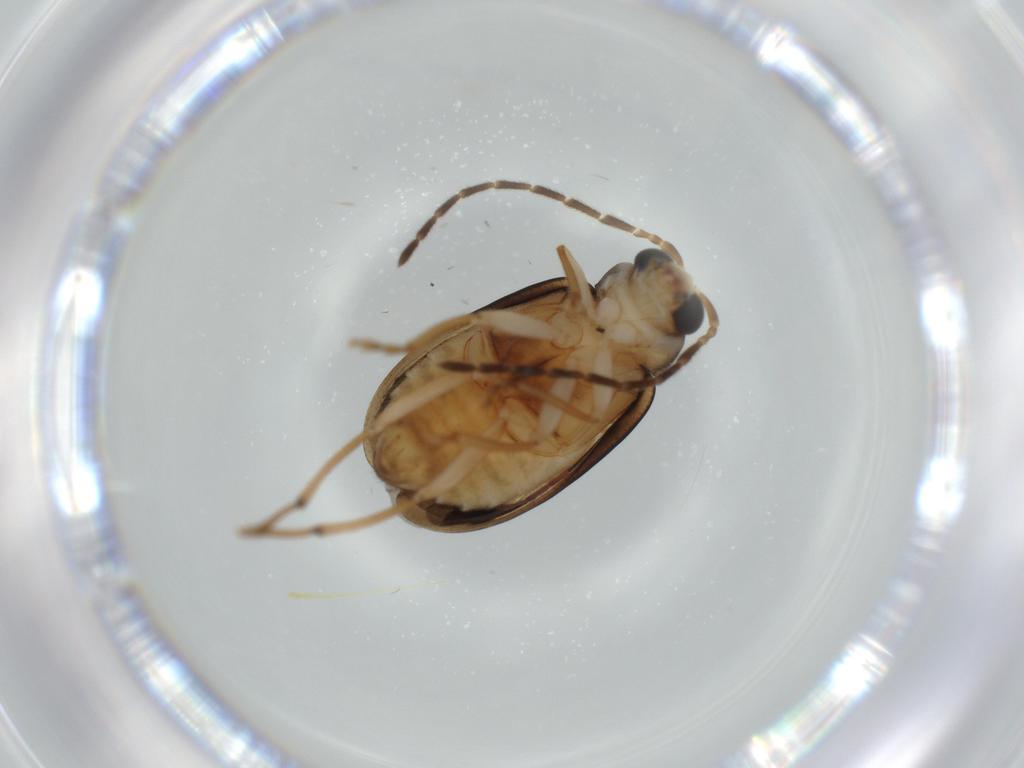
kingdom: Animalia
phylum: Arthropoda
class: Insecta
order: Coleoptera
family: Chrysomelidae
